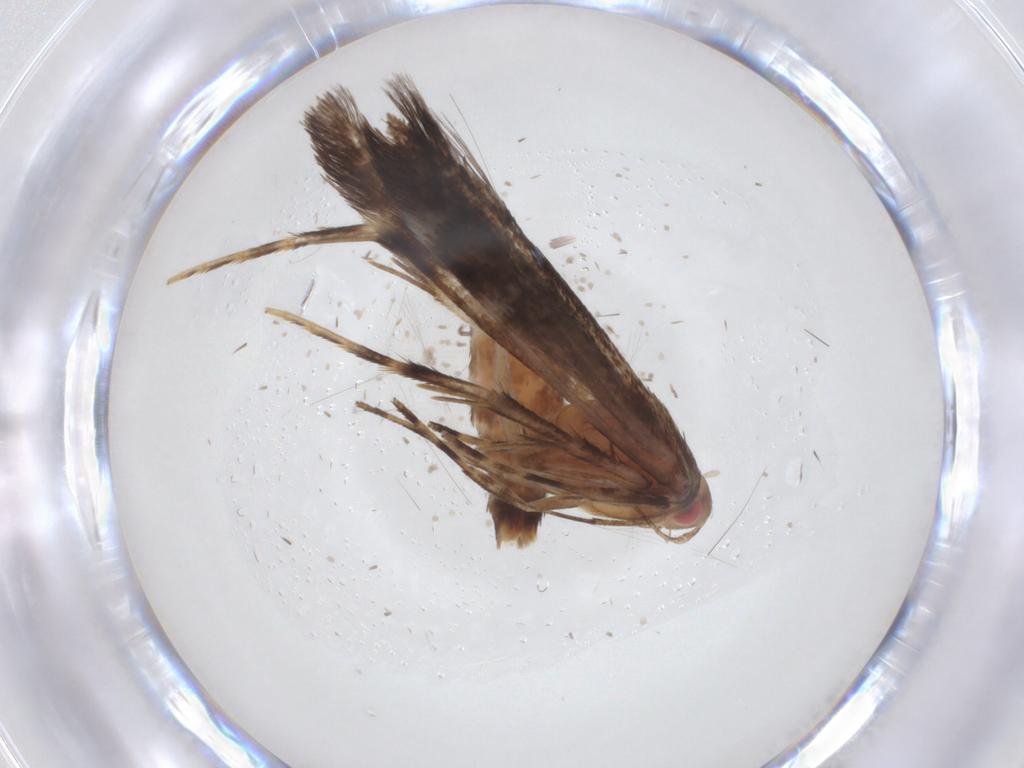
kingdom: Animalia
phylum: Arthropoda
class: Insecta
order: Lepidoptera
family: Cosmopterigidae
